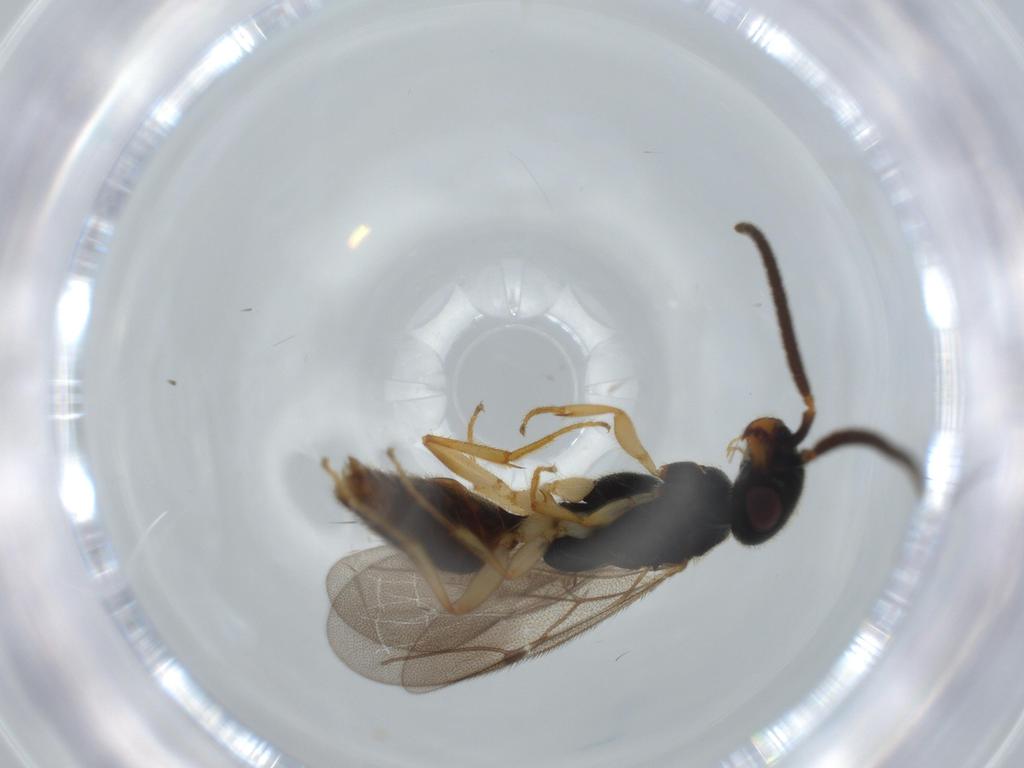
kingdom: Animalia
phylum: Arthropoda
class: Insecta
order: Hymenoptera
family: Bethylidae
